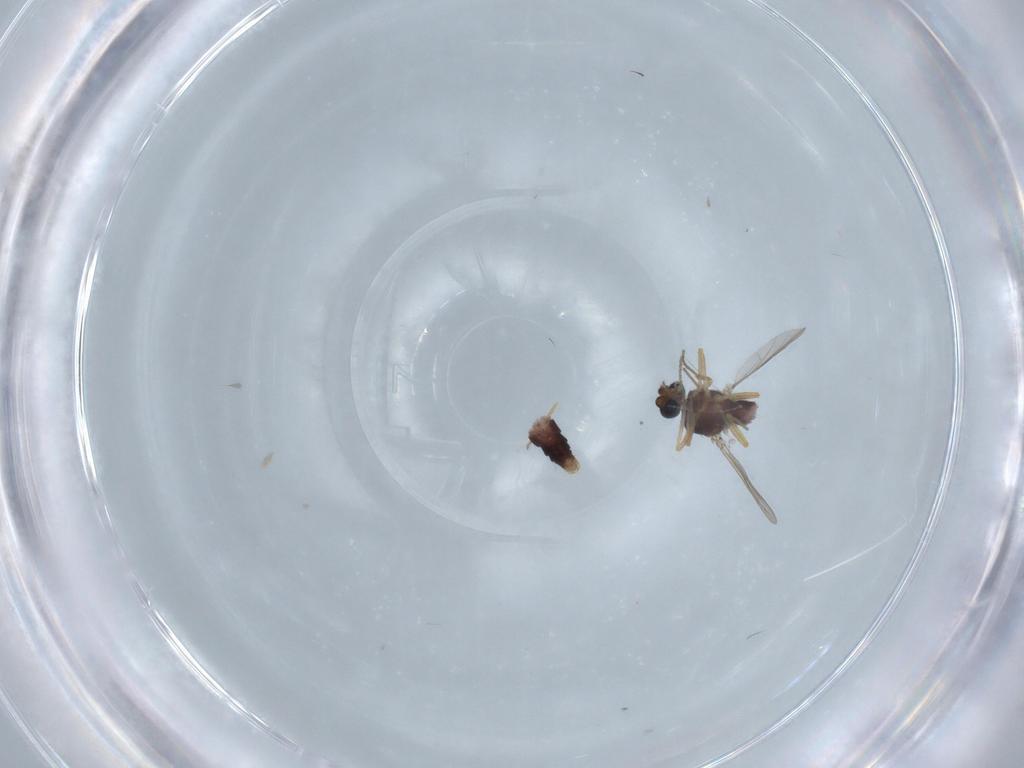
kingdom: Animalia
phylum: Arthropoda
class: Insecta
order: Diptera
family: Ceratopogonidae
